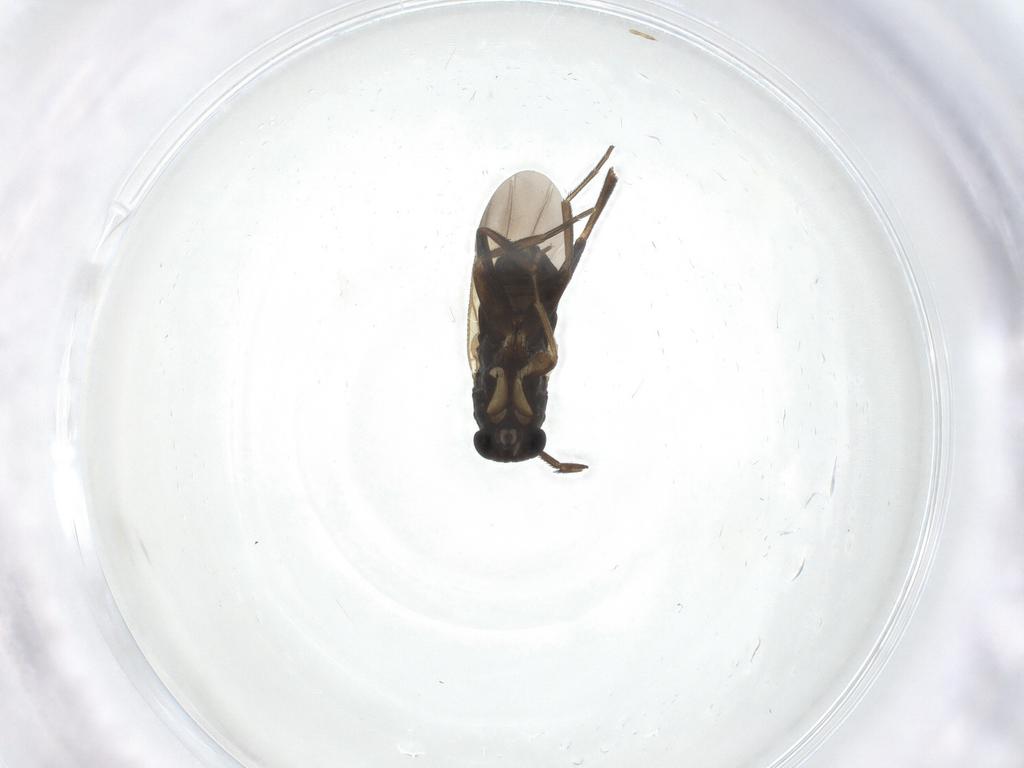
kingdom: Animalia
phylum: Arthropoda
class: Insecta
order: Diptera
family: Phoridae
